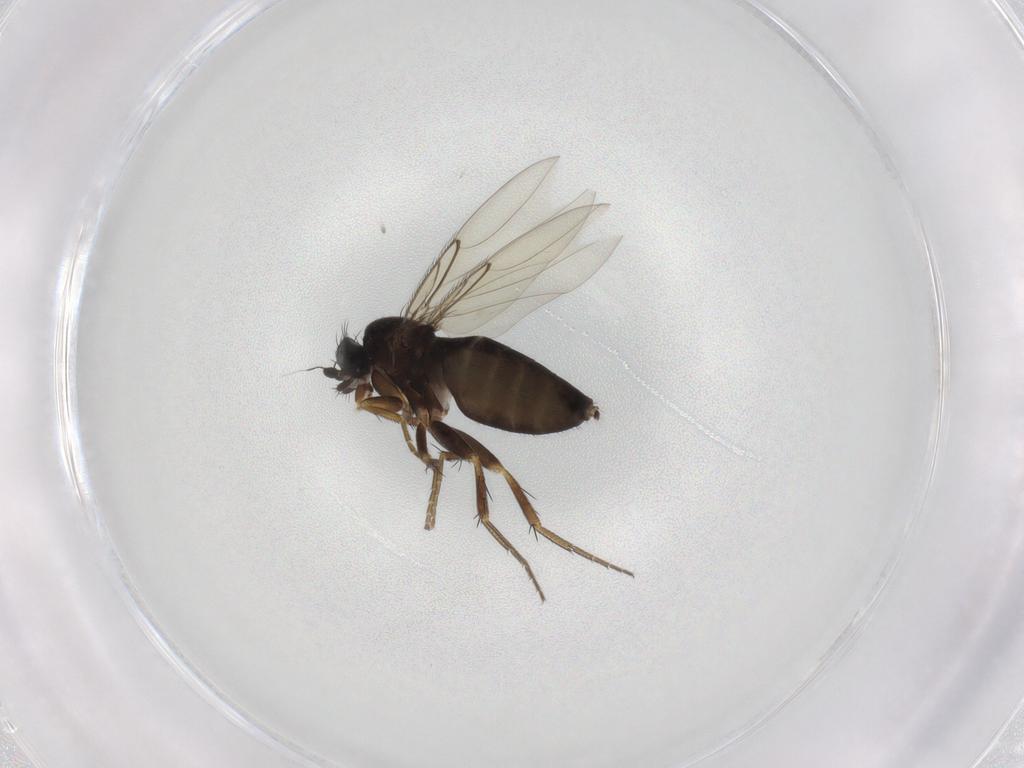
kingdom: Animalia
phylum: Arthropoda
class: Insecta
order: Diptera
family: Phoridae
